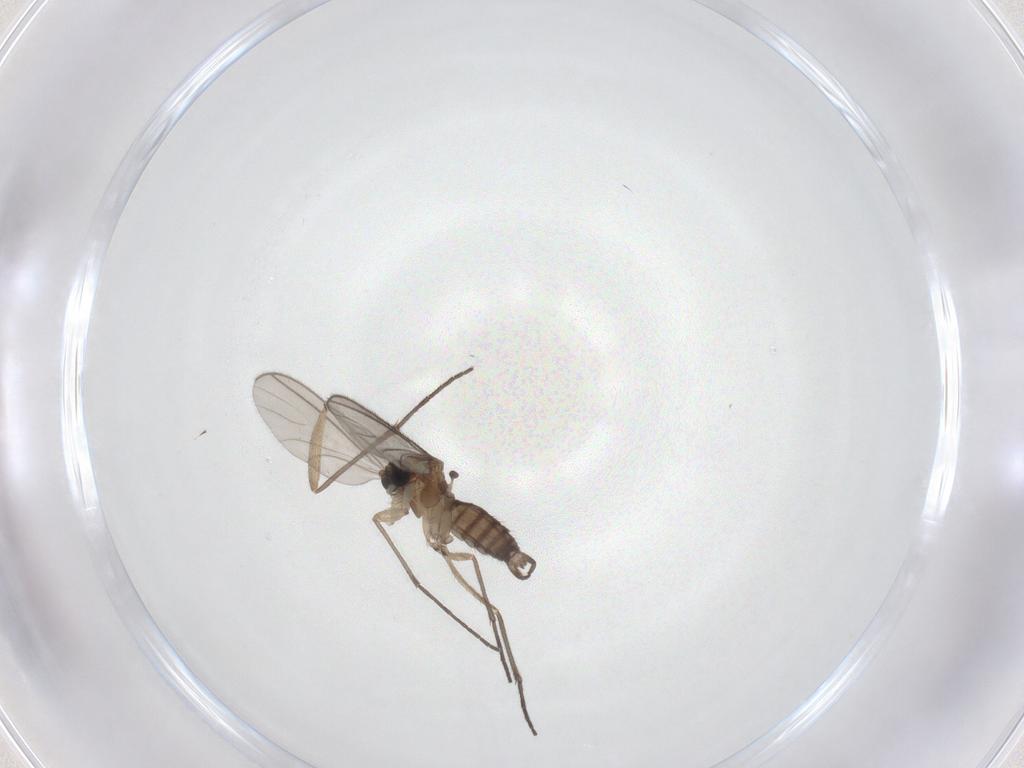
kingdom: Animalia
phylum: Arthropoda
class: Insecta
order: Diptera
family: Sciaridae
